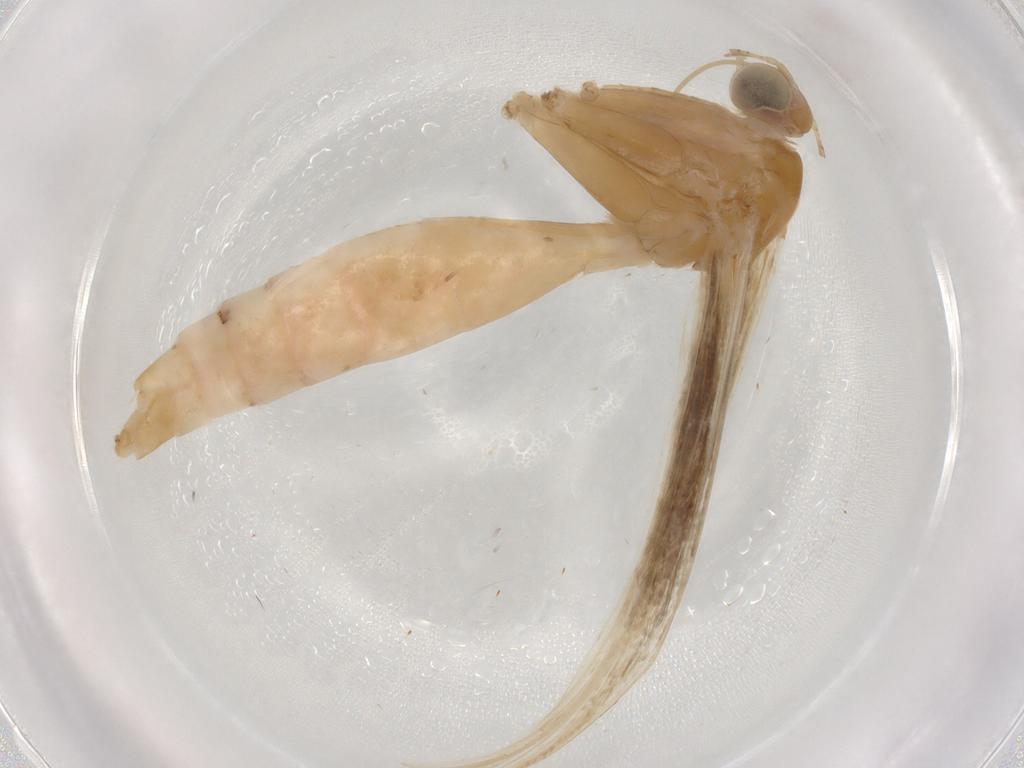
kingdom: Animalia
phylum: Arthropoda
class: Insecta
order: Lepidoptera
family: Pterophoridae
